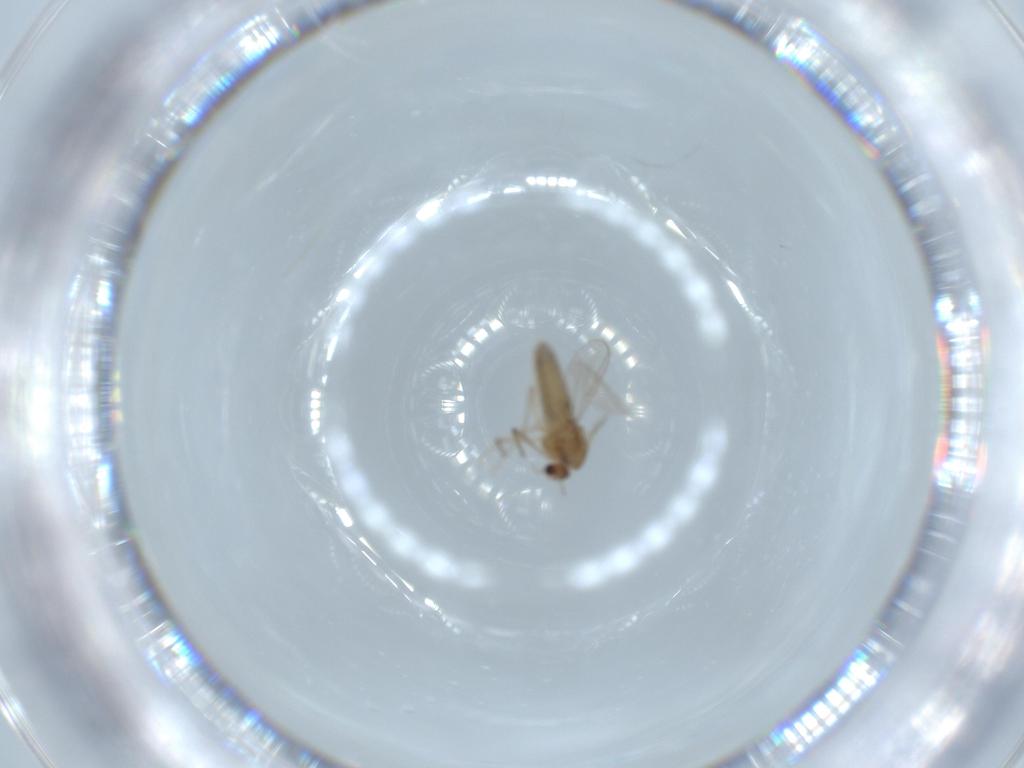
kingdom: Animalia
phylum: Arthropoda
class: Insecta
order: Diptera
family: Chironomidae
